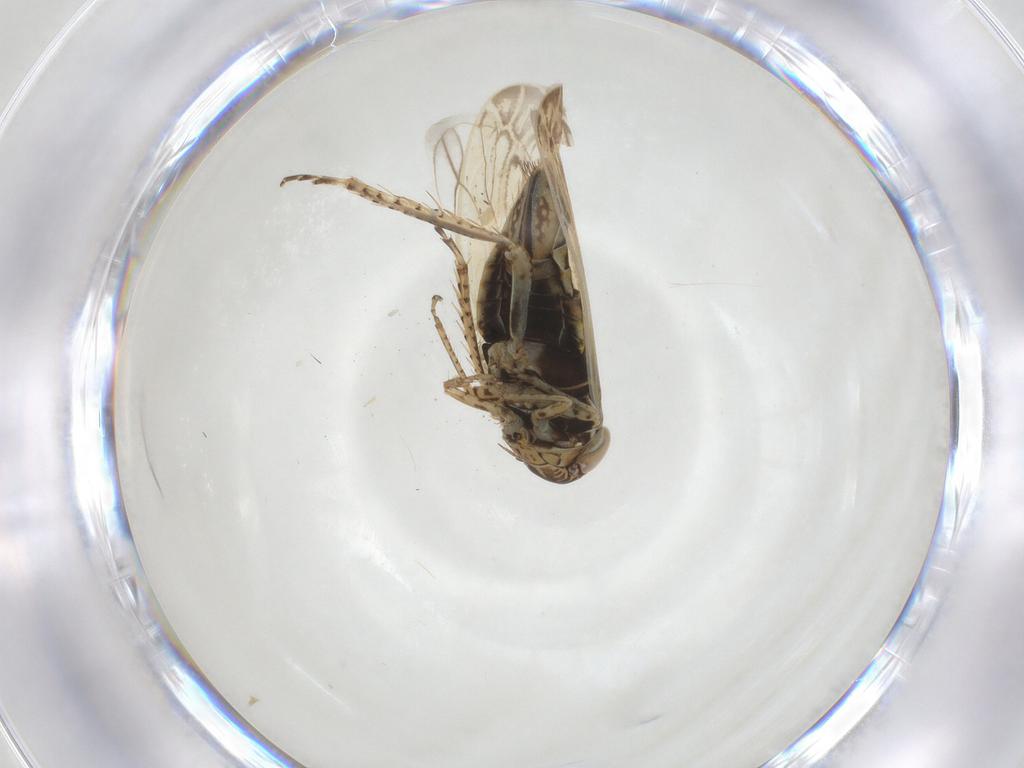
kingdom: Animalia
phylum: Arthropoda
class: Insecta
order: Hemiptera
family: Cicadellidae
